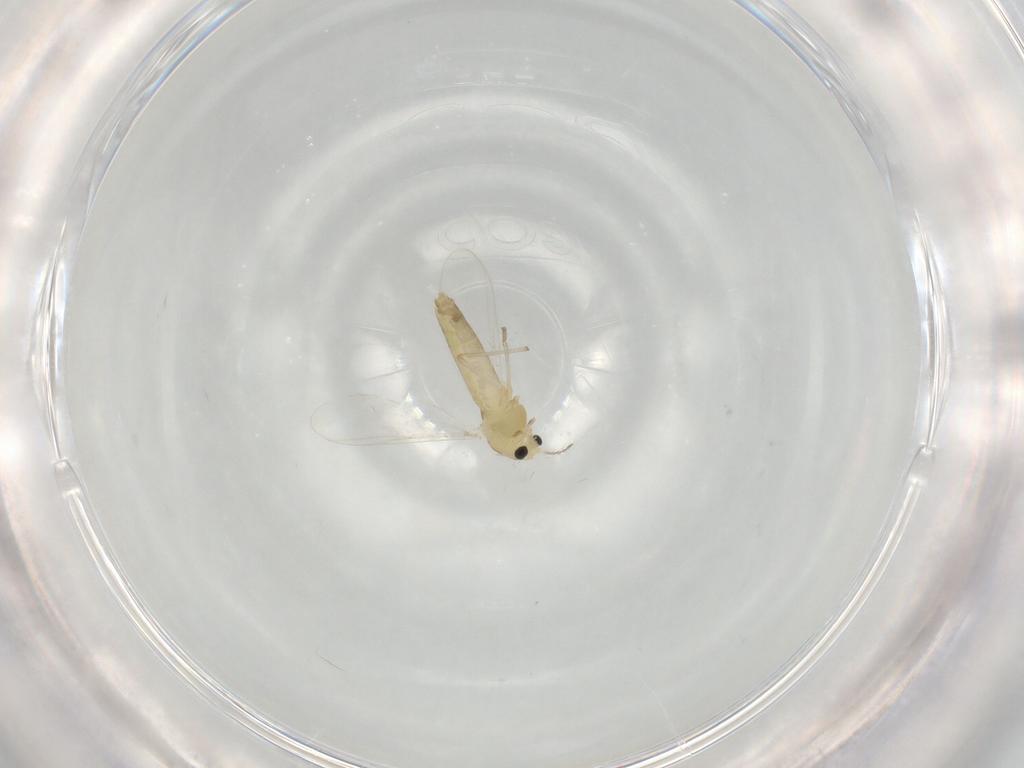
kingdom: Animalia
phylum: Arthropoda
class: Insecta
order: Diptera
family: Chironomidae
